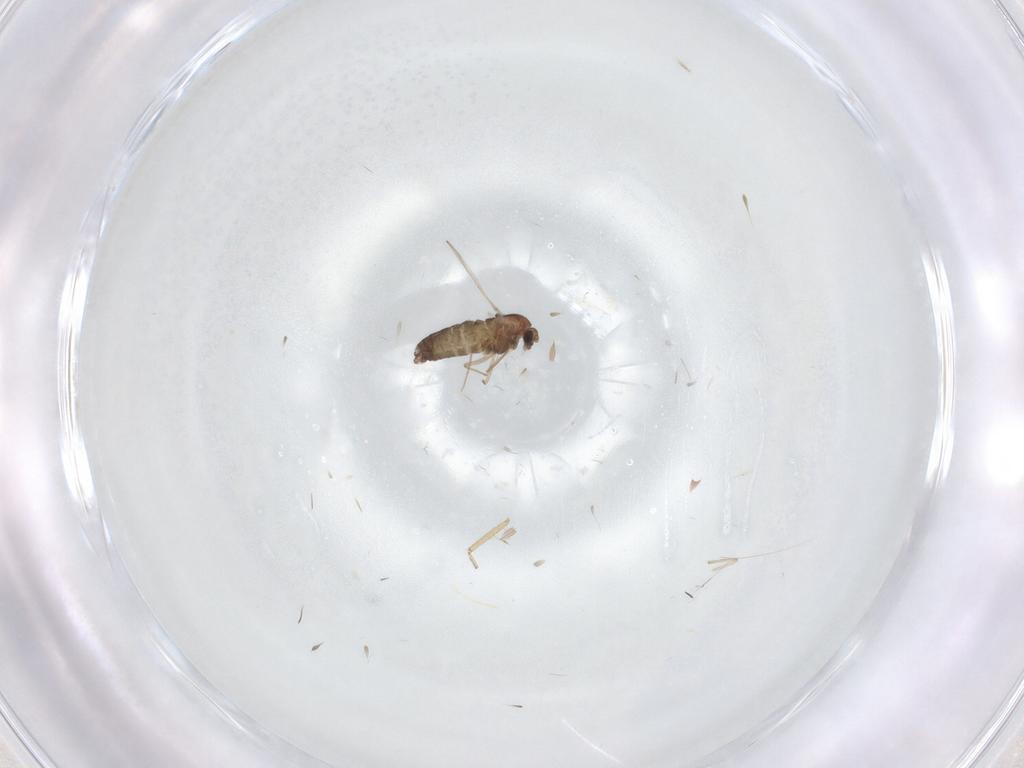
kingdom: Animalia
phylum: Arthropoda
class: Insecta
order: Diptera
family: Chironomidae
